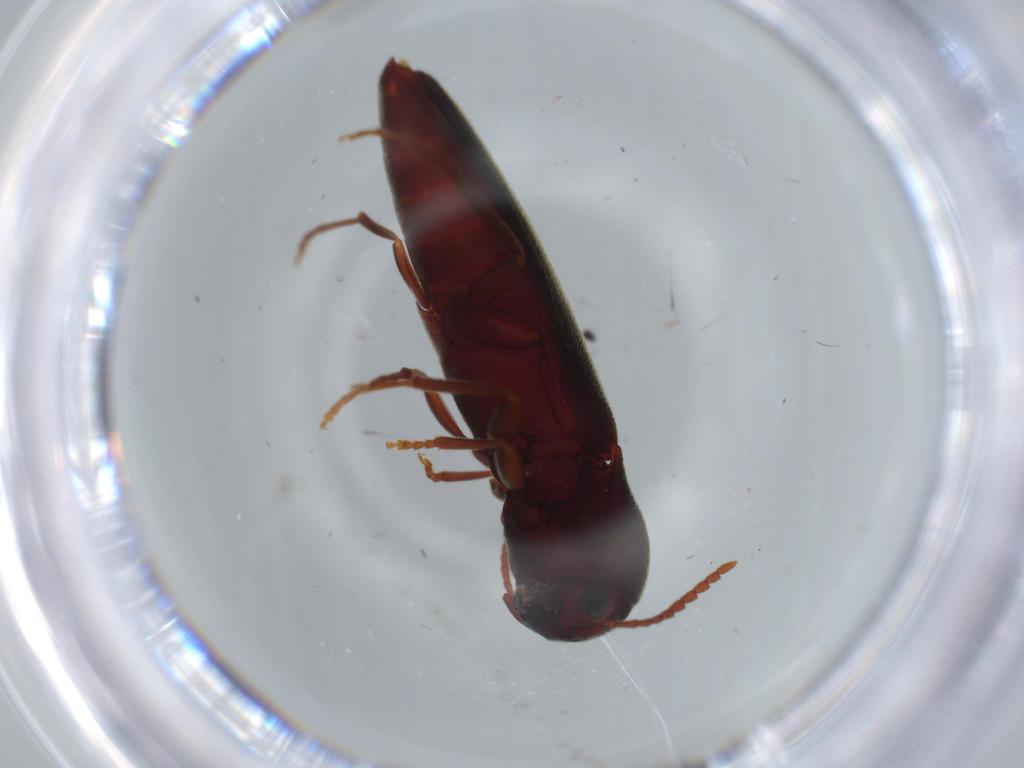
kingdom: Animalia
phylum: Arthropoda
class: Insecta
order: Coleoptera
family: Eucnemidae
